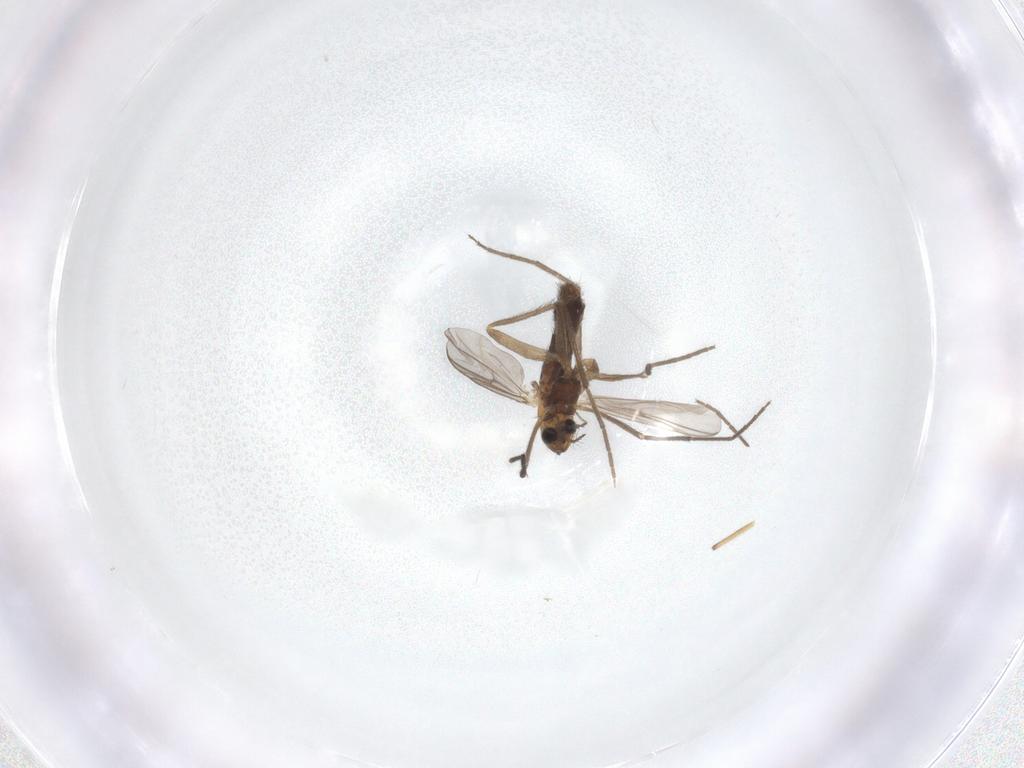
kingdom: Animalia
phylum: Arthropoda
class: Insecta
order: Diptera
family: Chironomidae
